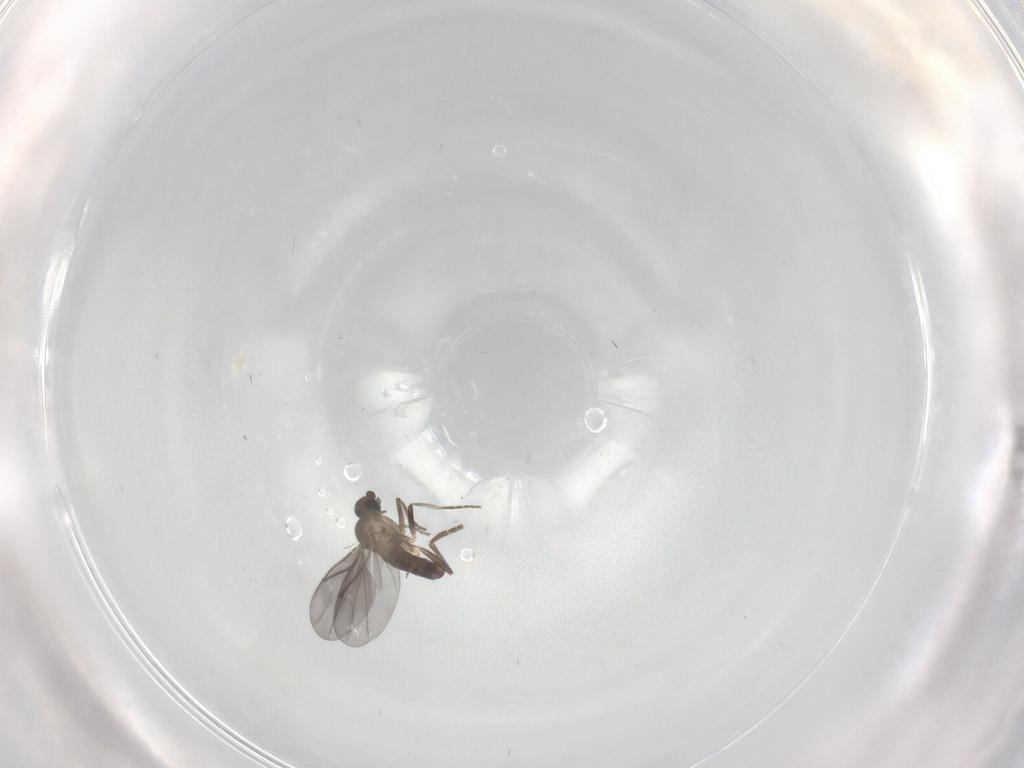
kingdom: Animalia
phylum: Arthropoda
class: Insecta
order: Diptera
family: Phoridae
